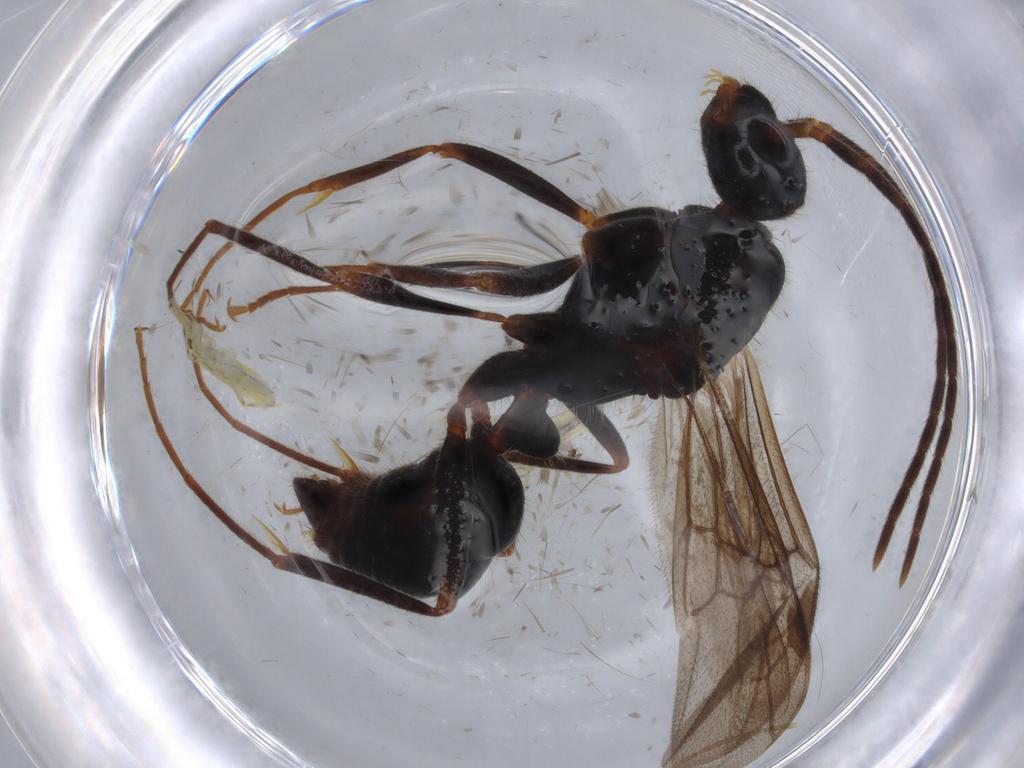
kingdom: Animalia
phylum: Arthropoda
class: Insecta
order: Hymenoptera
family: Formicidae
